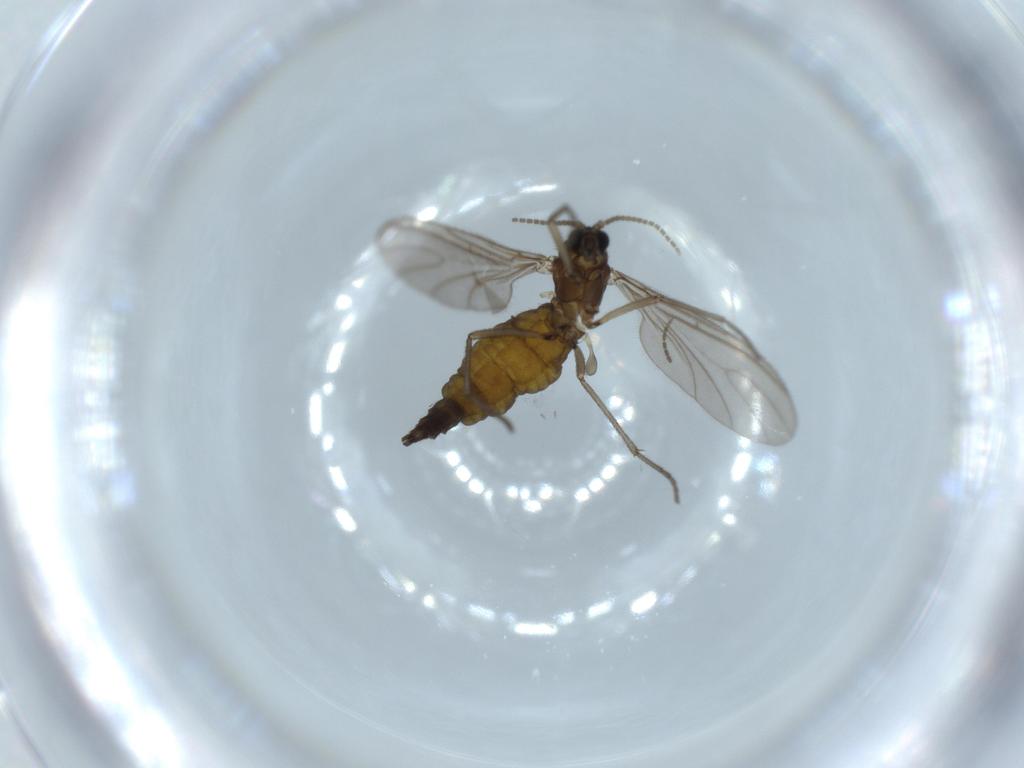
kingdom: Animalia
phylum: Arthropoda
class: Insecta
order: Diptera
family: Sciaridae
